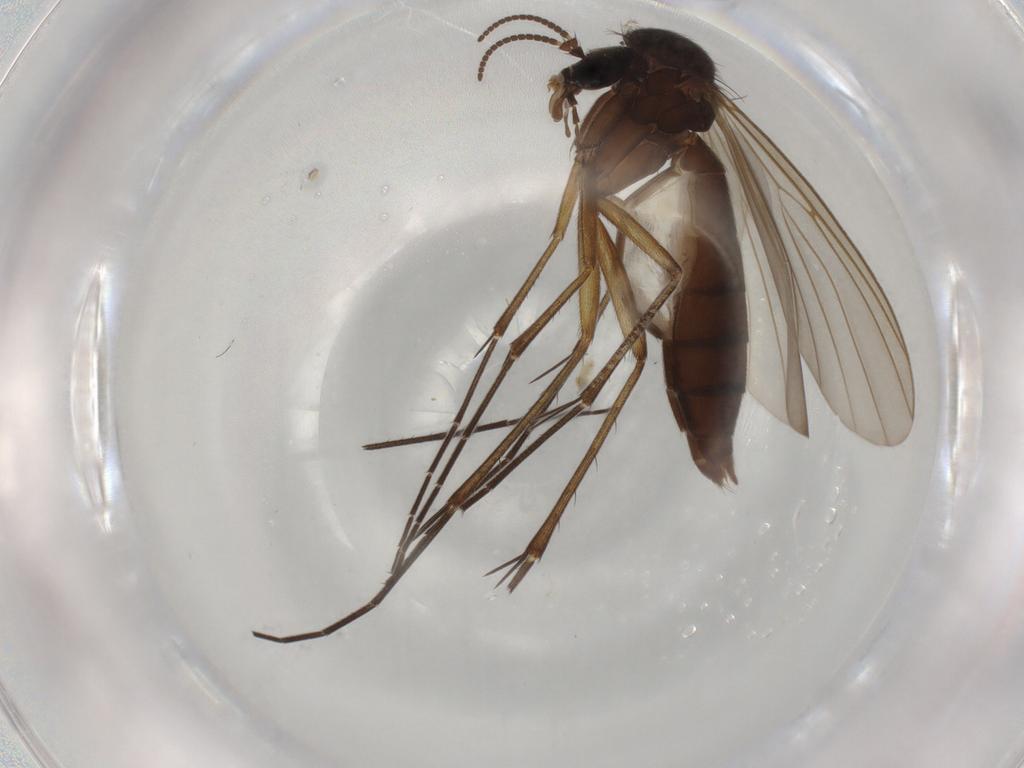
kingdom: Animalia
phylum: Arthropoda
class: Insecta
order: Diptera
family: Mycetophilidae
